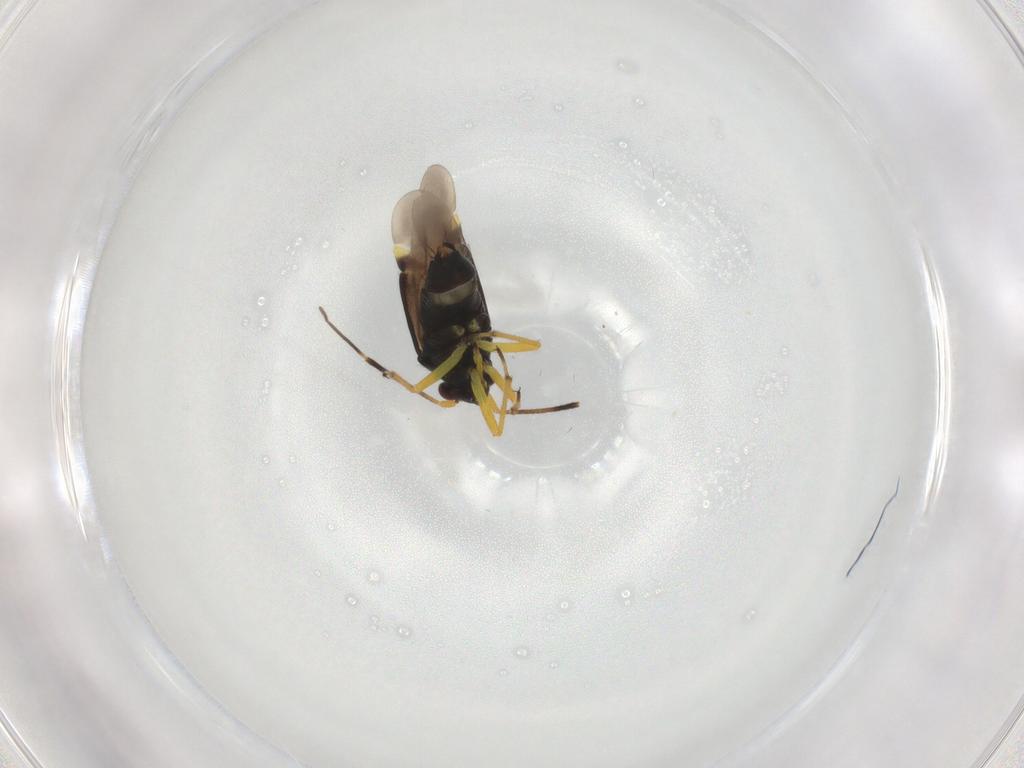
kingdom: Animalia
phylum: Arthropoda
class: Insecta
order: Hemiptera
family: Miridae
